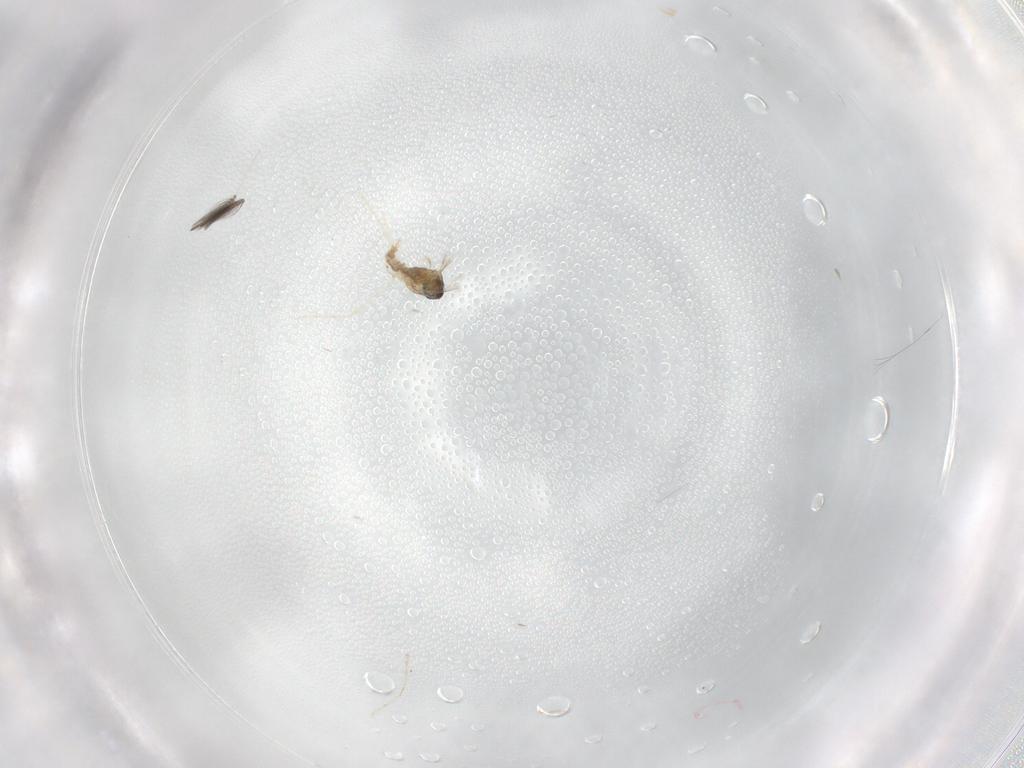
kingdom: Animalia
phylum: Arthropoda
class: Insecta
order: Diptera
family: Cecidomyiidae
